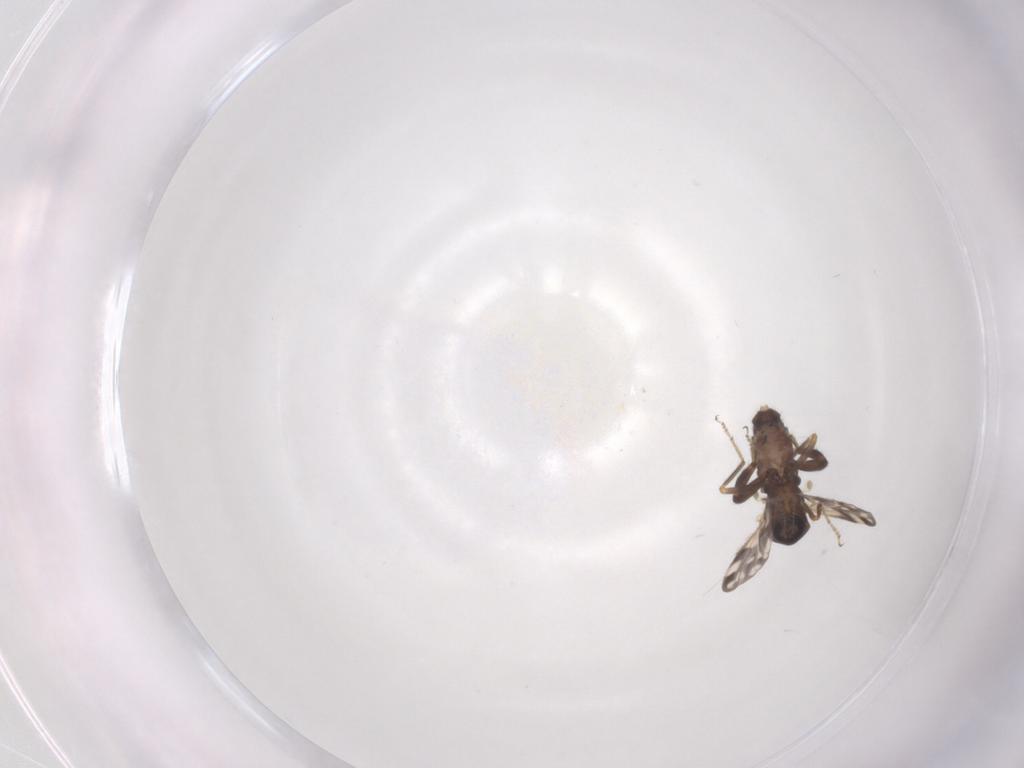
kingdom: Animalia
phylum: Arthropoda
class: Insecta
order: Diptera
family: Ceratopogonidae
